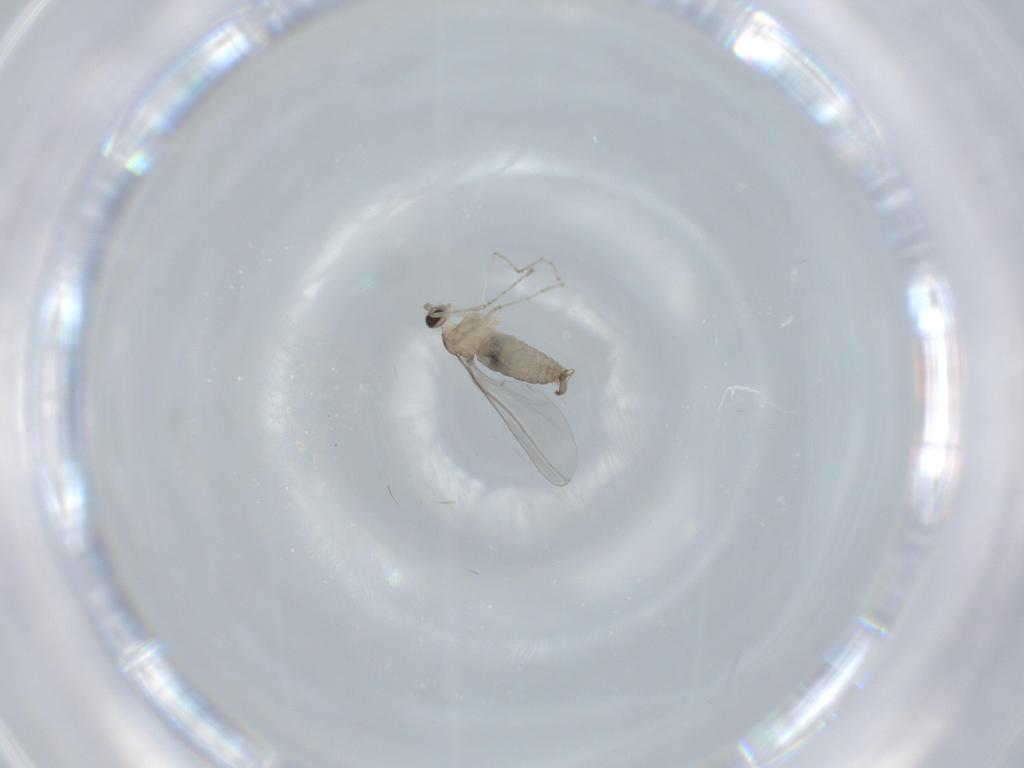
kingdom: Animalia
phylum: Arthropoda
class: Insecta
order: Diptera
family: Cecidomyiidae
